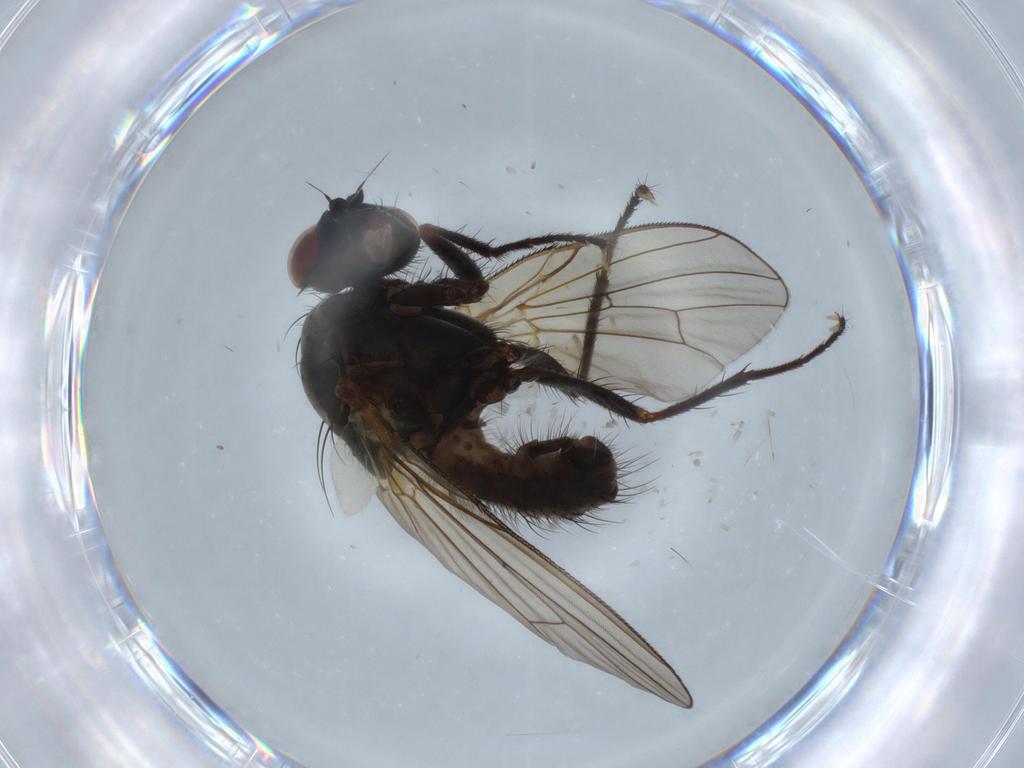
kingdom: Animalia
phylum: Arthropoda
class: Insecta
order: Diptera
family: Anthomyiidae
